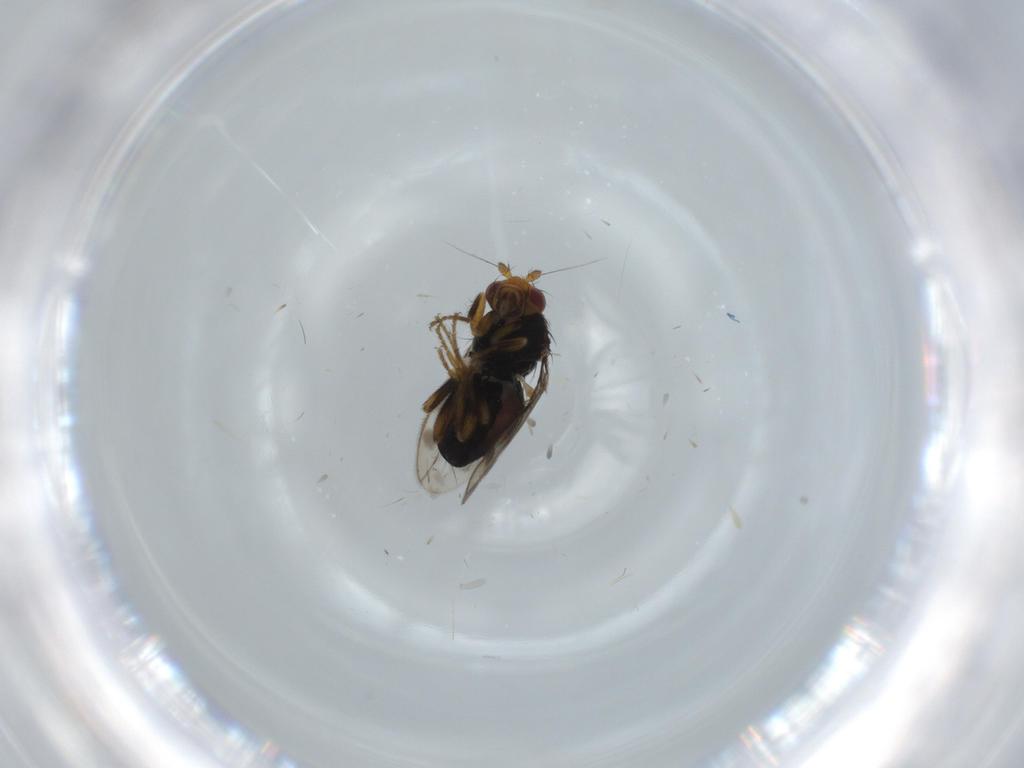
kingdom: Animalia
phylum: Arthropoda
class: Insecta
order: Diptera
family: Sphaeroceridae
